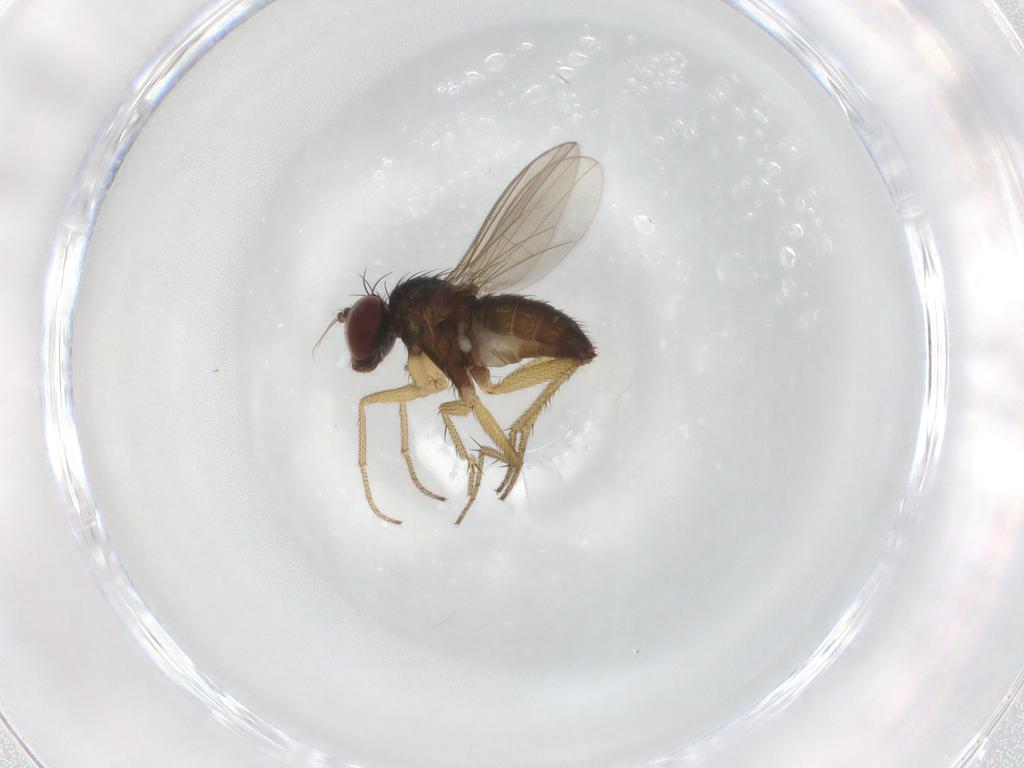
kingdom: Animalia
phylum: Arthropoda
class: Insecta
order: Diptera
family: Dolichopodidae
